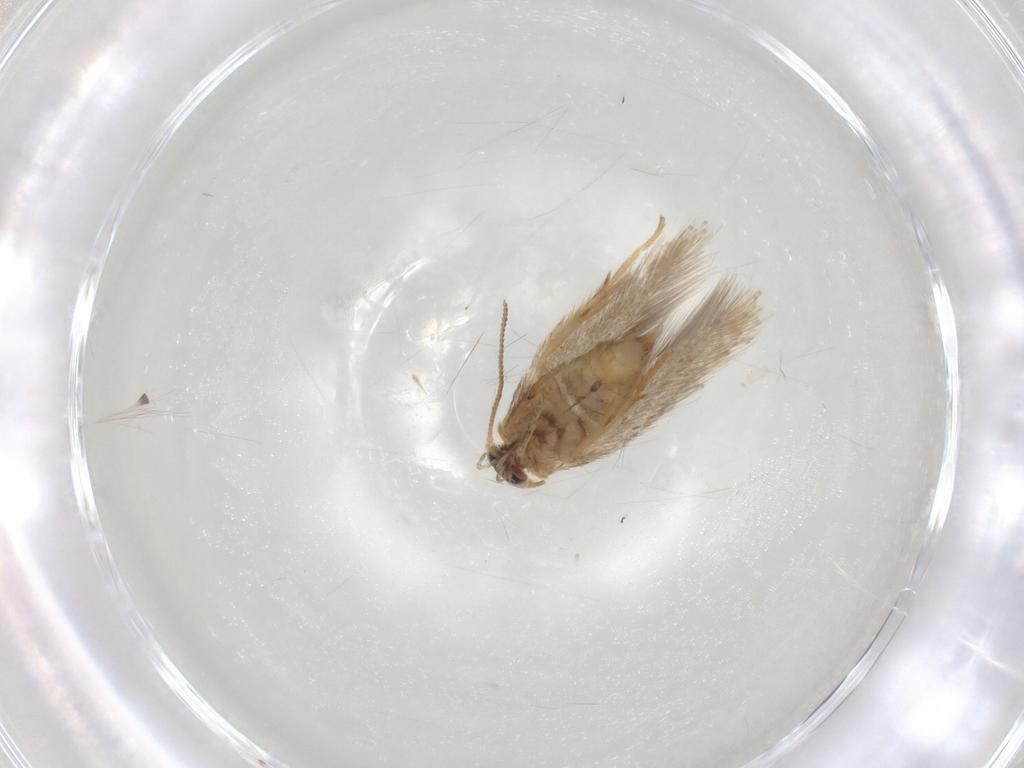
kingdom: Animalia
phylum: Arthropoda
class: Insecta
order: Lepidoptera
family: Nepticulidae
